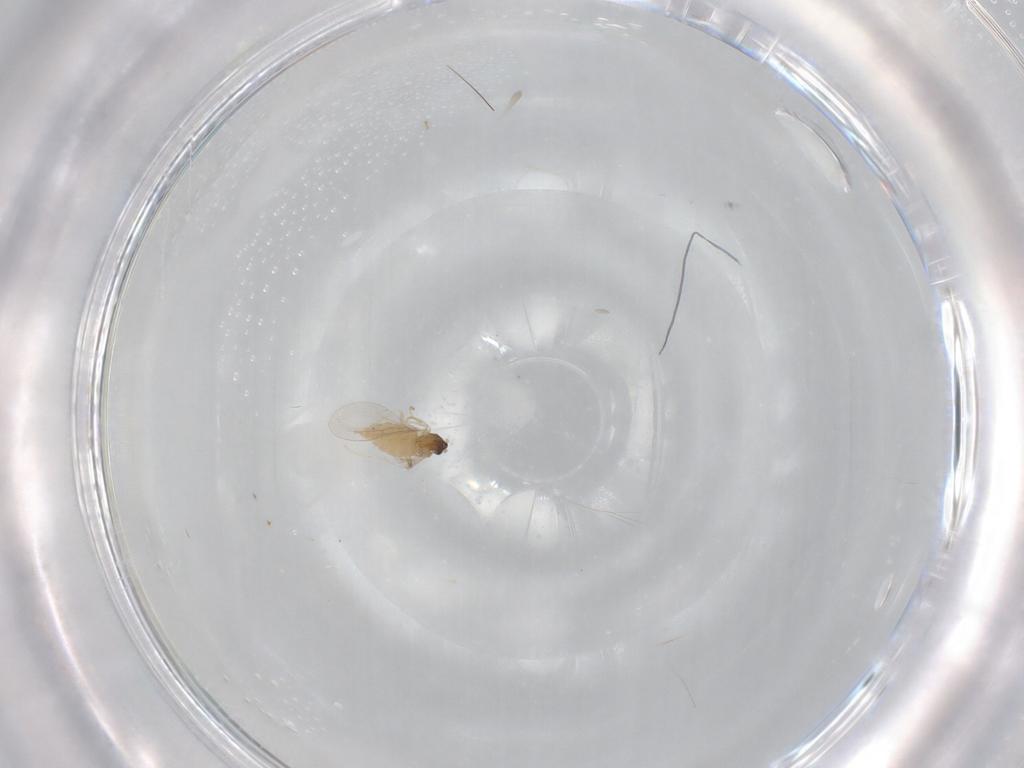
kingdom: Animalia
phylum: Arthropoda
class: Insecta
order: Diptera
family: Cecidomyiidae
